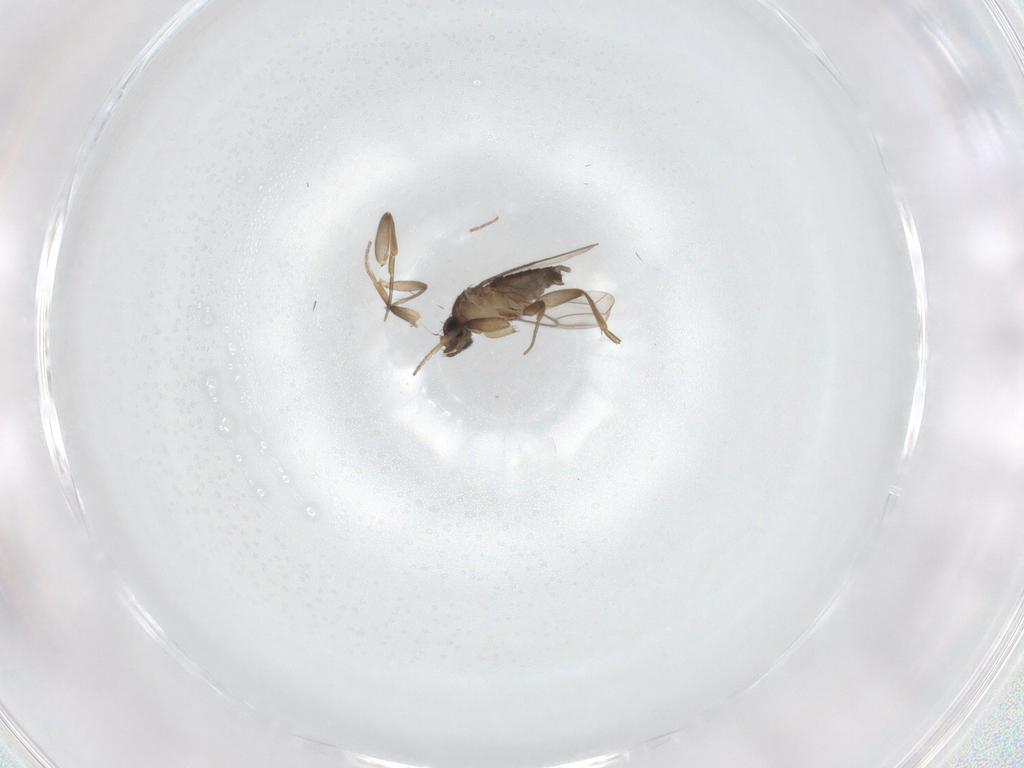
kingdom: Animalia
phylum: Arthropoda
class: Insecta
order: Diptera
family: Phoridae
